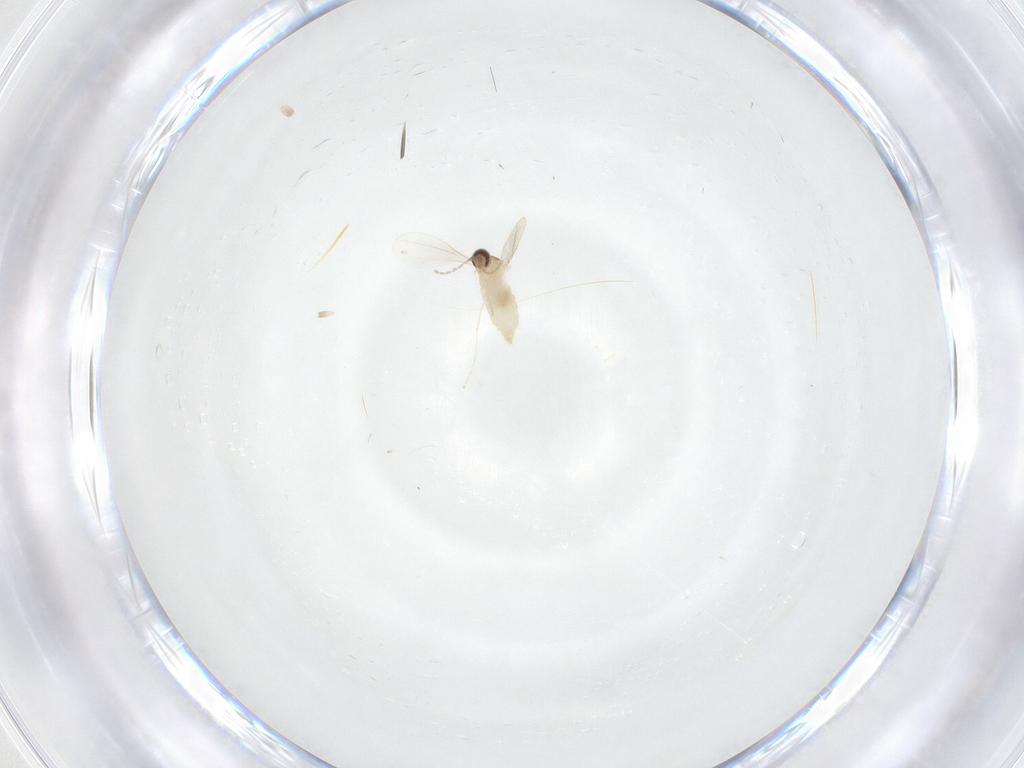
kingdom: Animalia
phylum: Arthropoda
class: Insecta
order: Diptera
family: Cecidomyiidae
